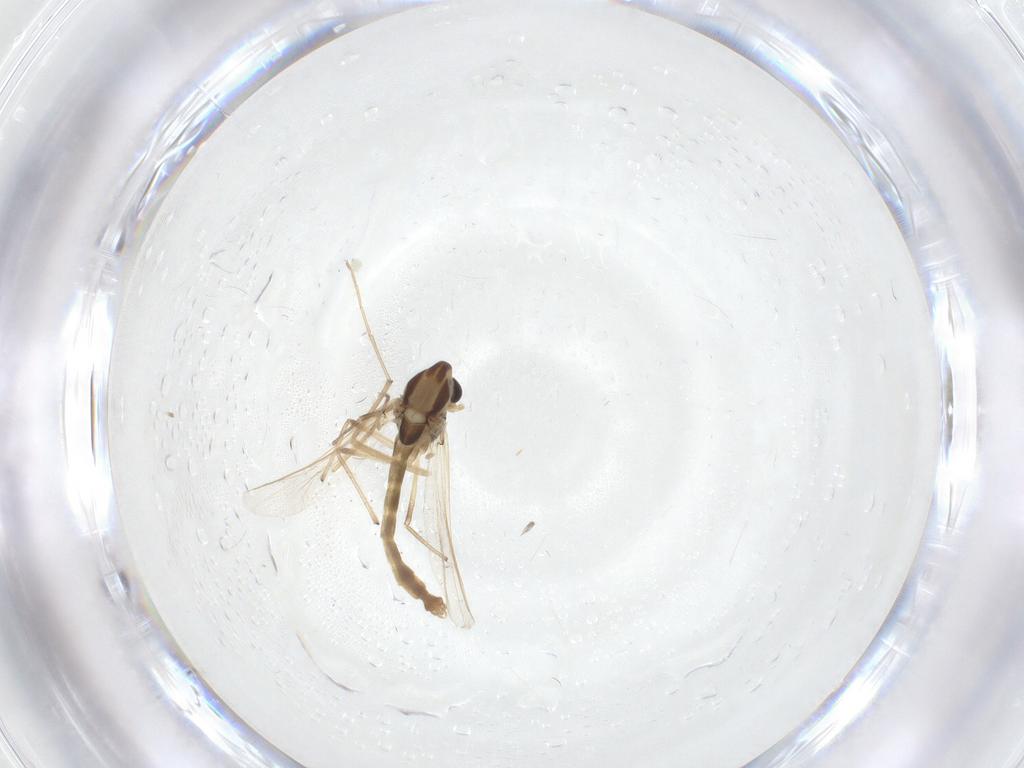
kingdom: Animalia
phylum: Arthropoda
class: Insecta
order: Diptera
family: Chironomidae
